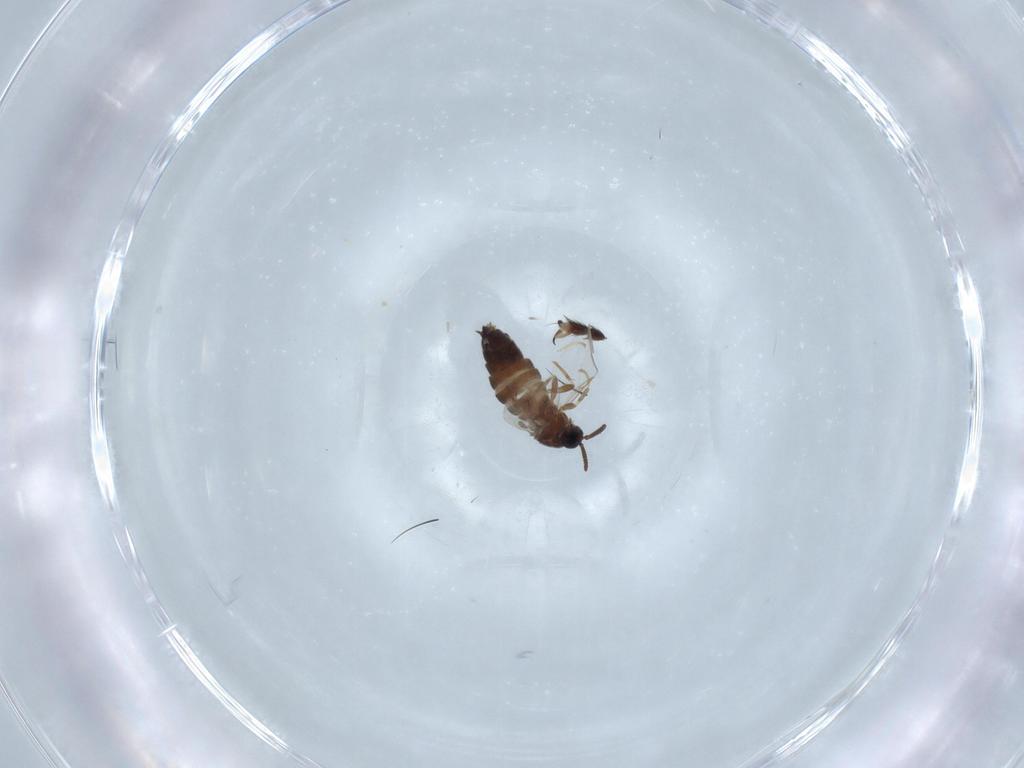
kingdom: Animalia
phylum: Arthropoda
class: Insecta
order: Diptera
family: Scatopsidae
